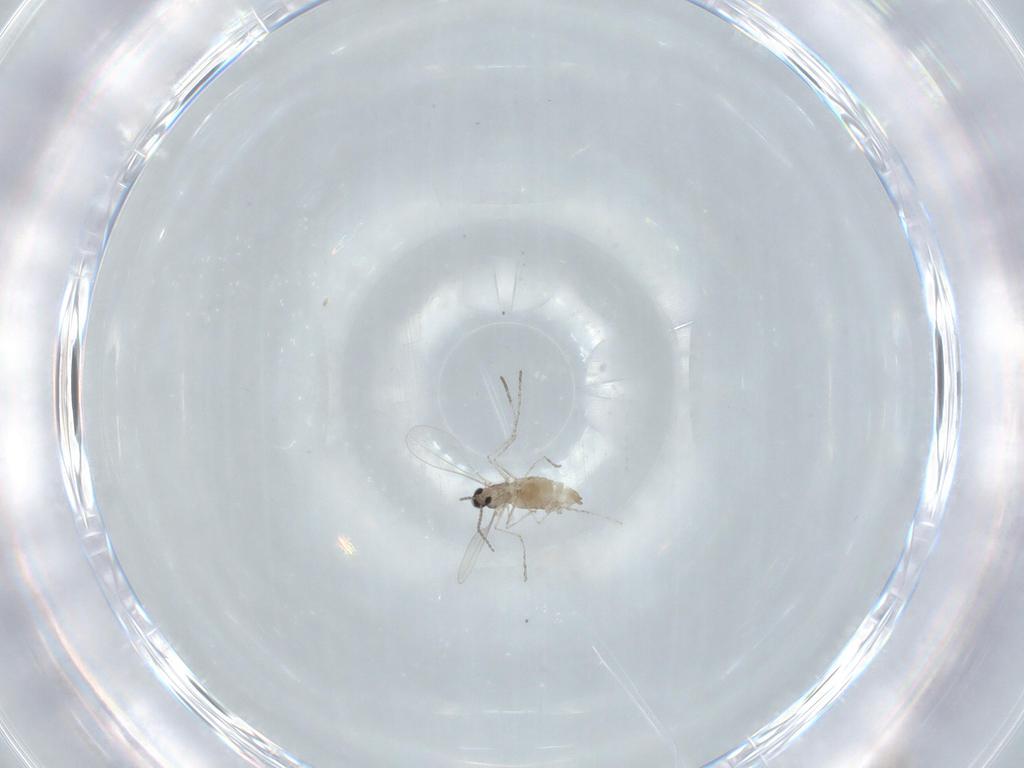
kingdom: Animalia
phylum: Arthropoda
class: Insecta
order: Diptera
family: Cecidomyiidae
